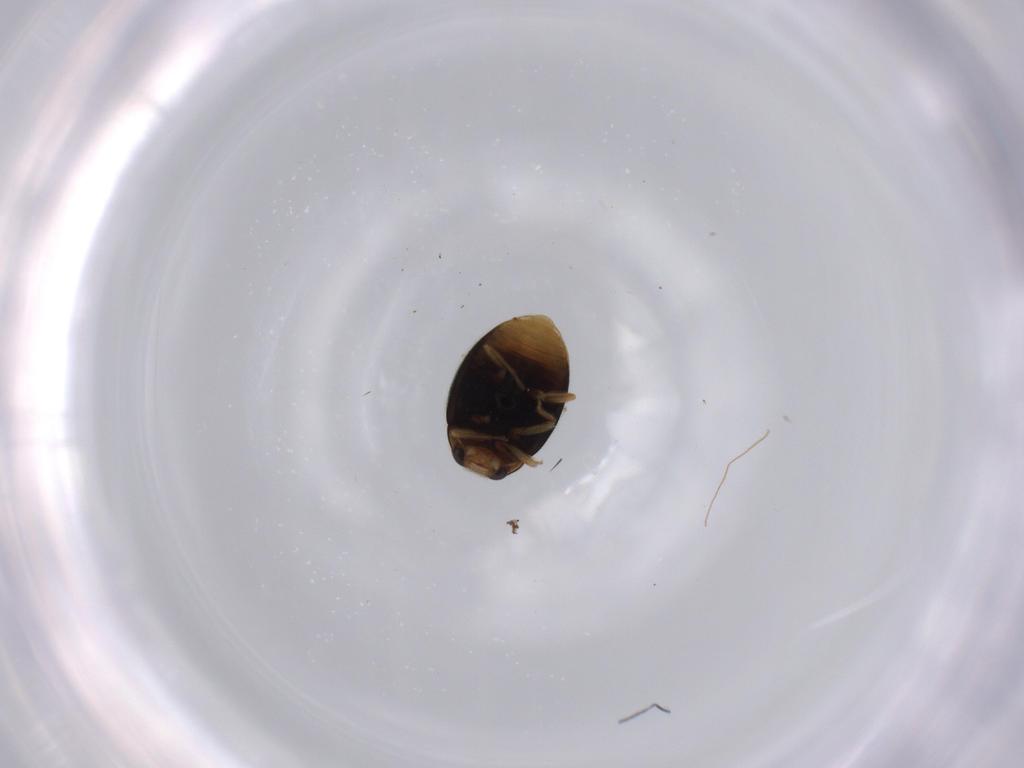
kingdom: Animalia
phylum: Arthropoda
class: Insecta
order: Coleoptera
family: Coccinellidae
